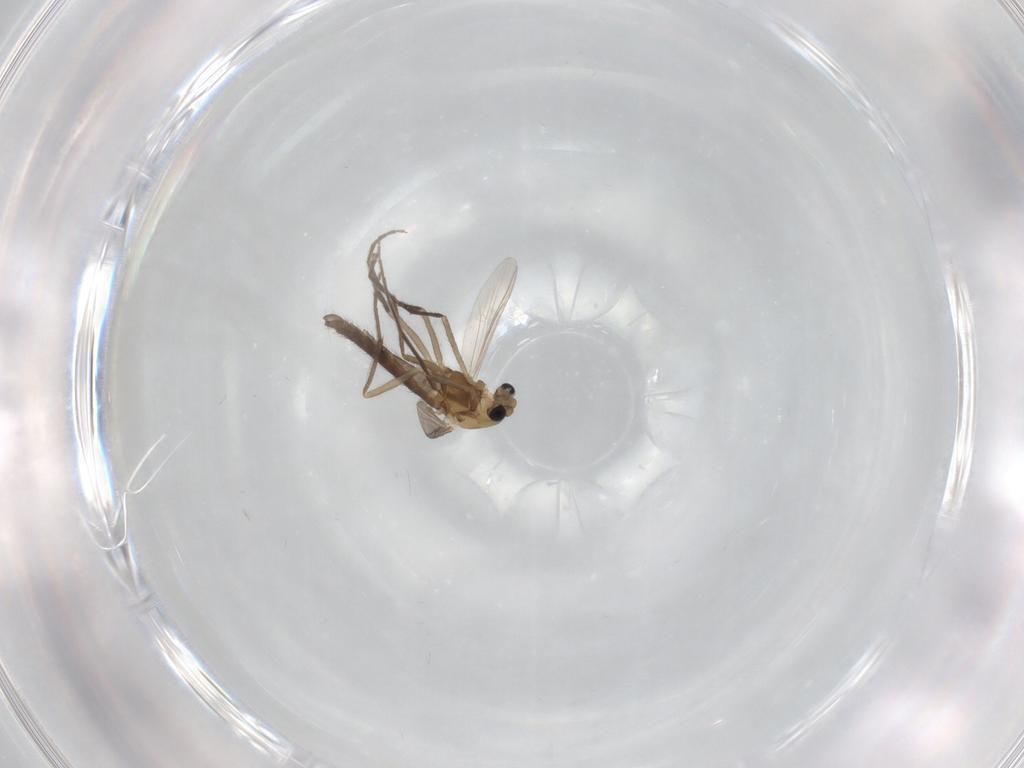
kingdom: Animalia
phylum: Arthropoda
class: Insecta
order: Diptera
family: Chironomidae
